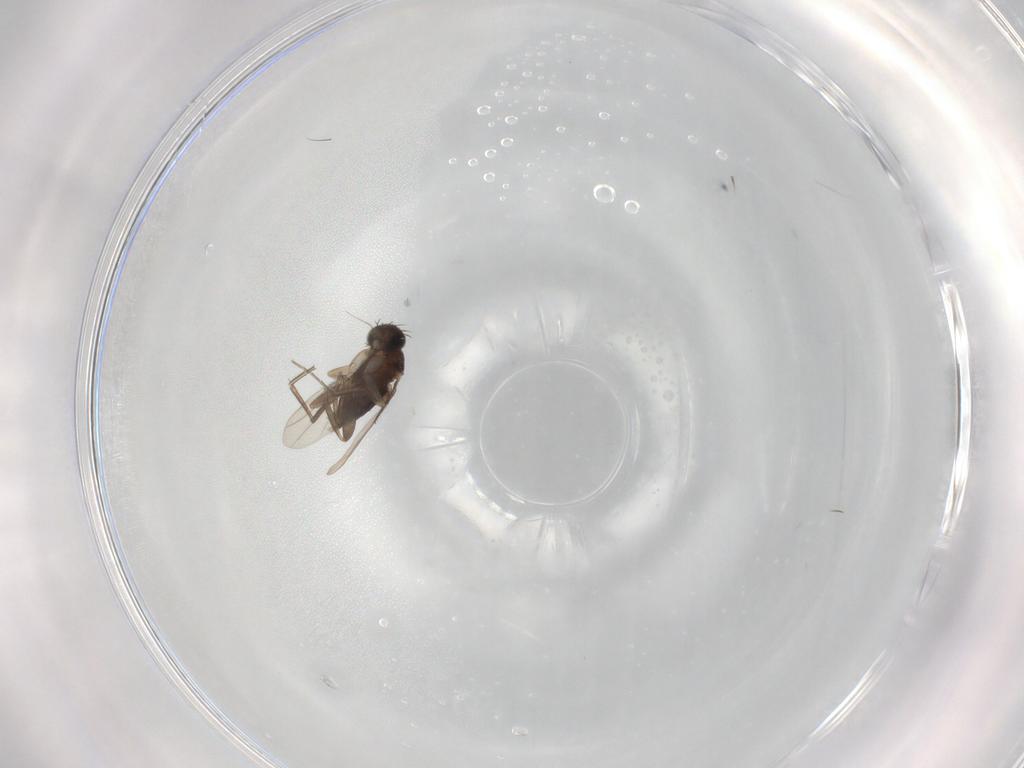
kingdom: Animalia
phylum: Arthropoda
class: Insecta
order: Diptera
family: Phoridae
